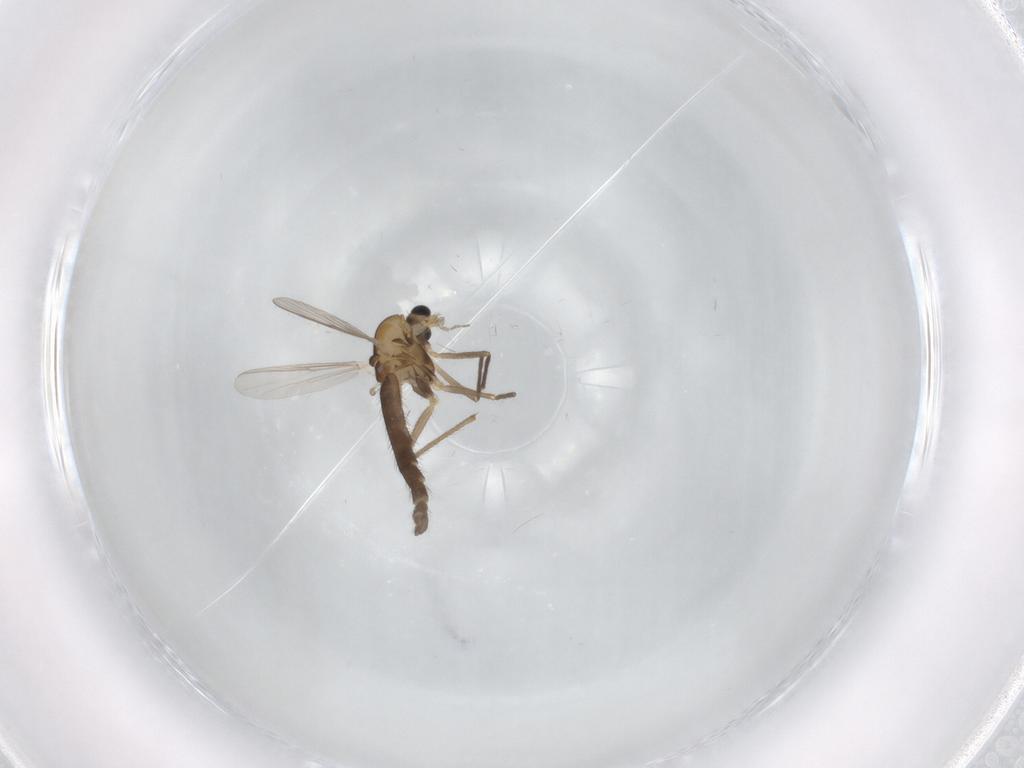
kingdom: Animalia
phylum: Arthropoda
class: Insecta
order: Diptera
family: Chironomidae
